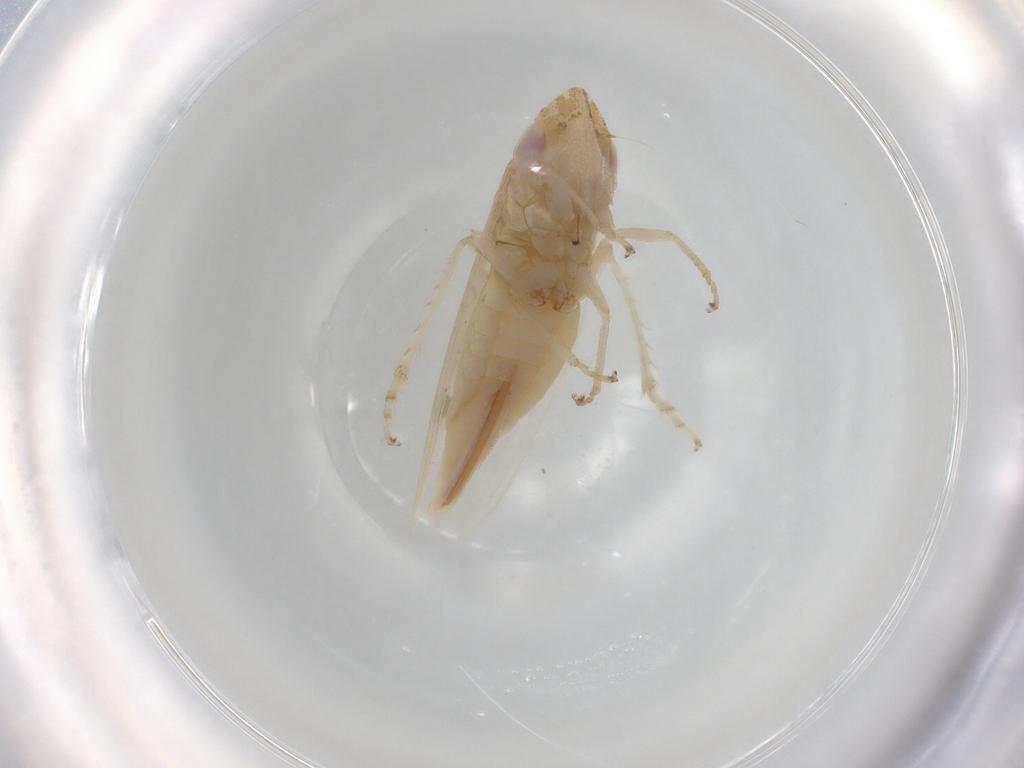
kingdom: Animalia
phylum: Arthropoda
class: Insecta
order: Hemiptera
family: Cicadellidae
